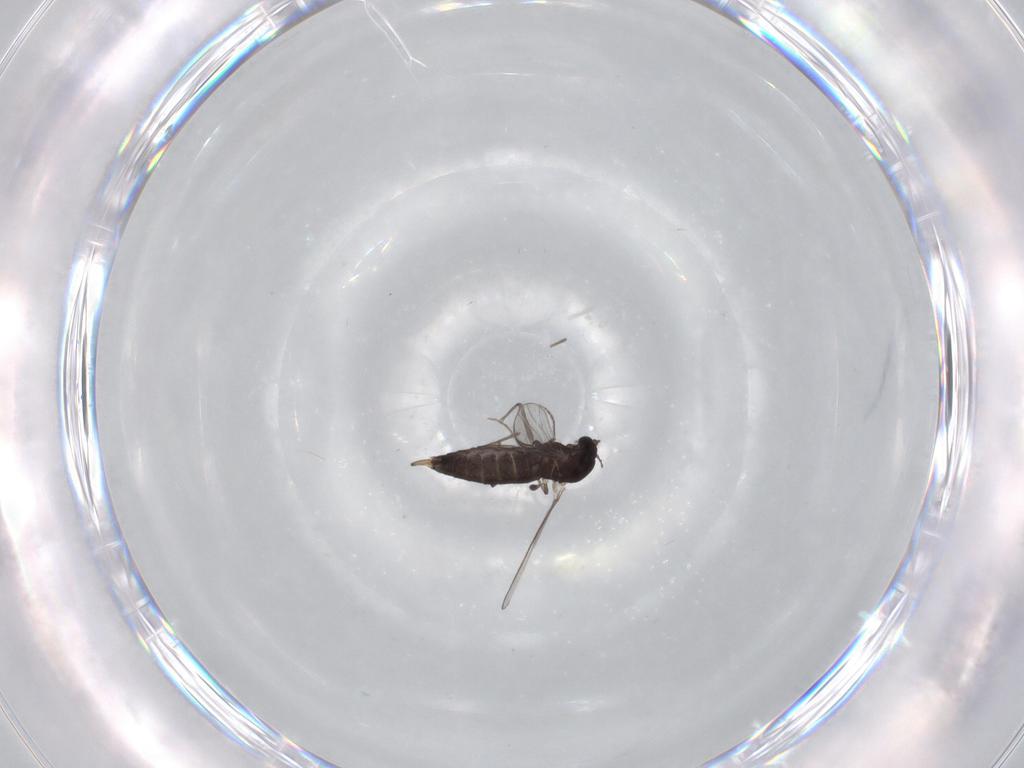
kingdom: Animalia
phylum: Arthropoda
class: Insecta
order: Diptera
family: Chironomidae
